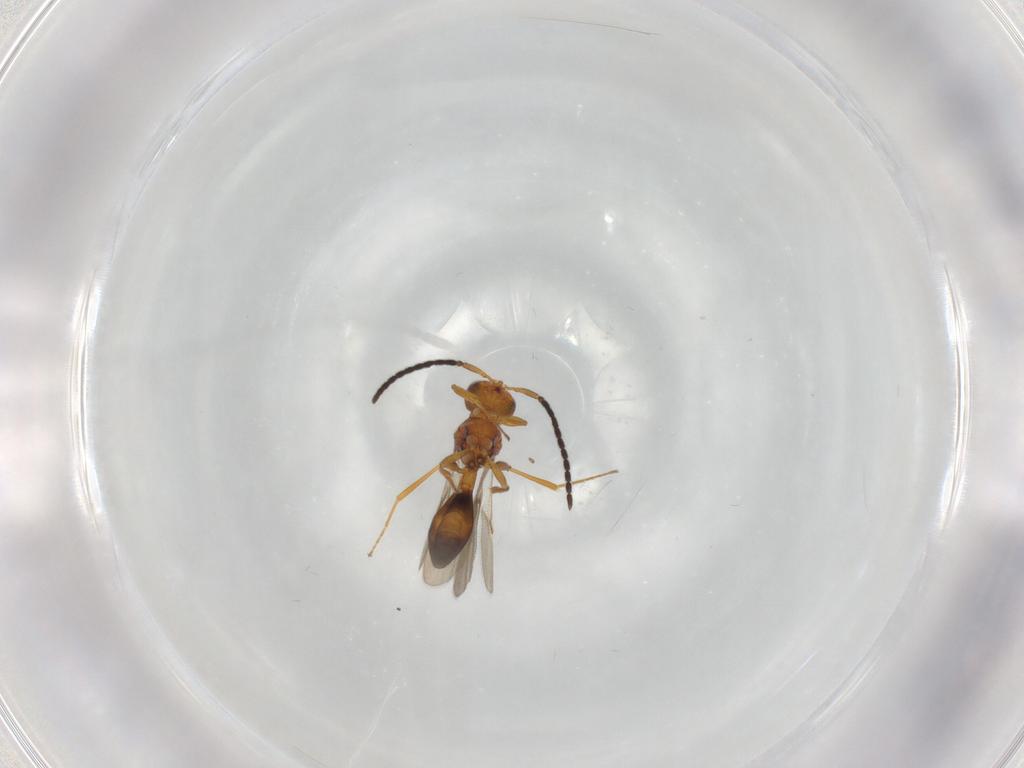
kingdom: Animalia
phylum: Arthropoda
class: Insecta
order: Hymenoptera
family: Scelionidae
